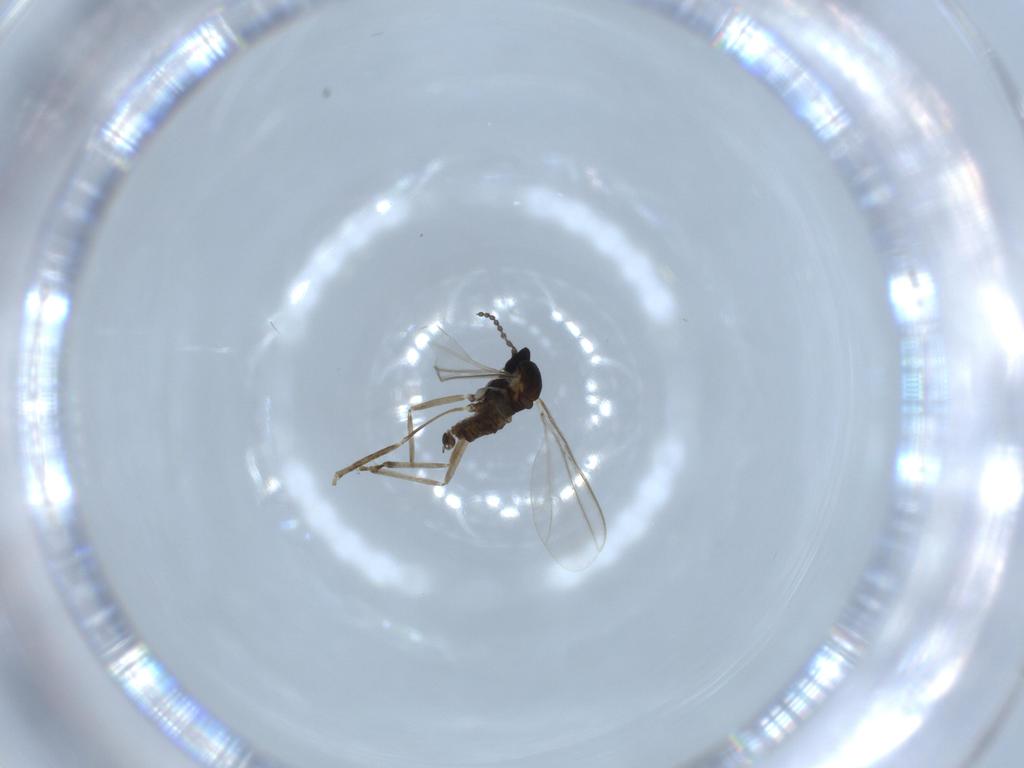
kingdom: Animalia
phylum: Arthropoda
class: Insecta
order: Diptera
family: Cecidomyiidae
